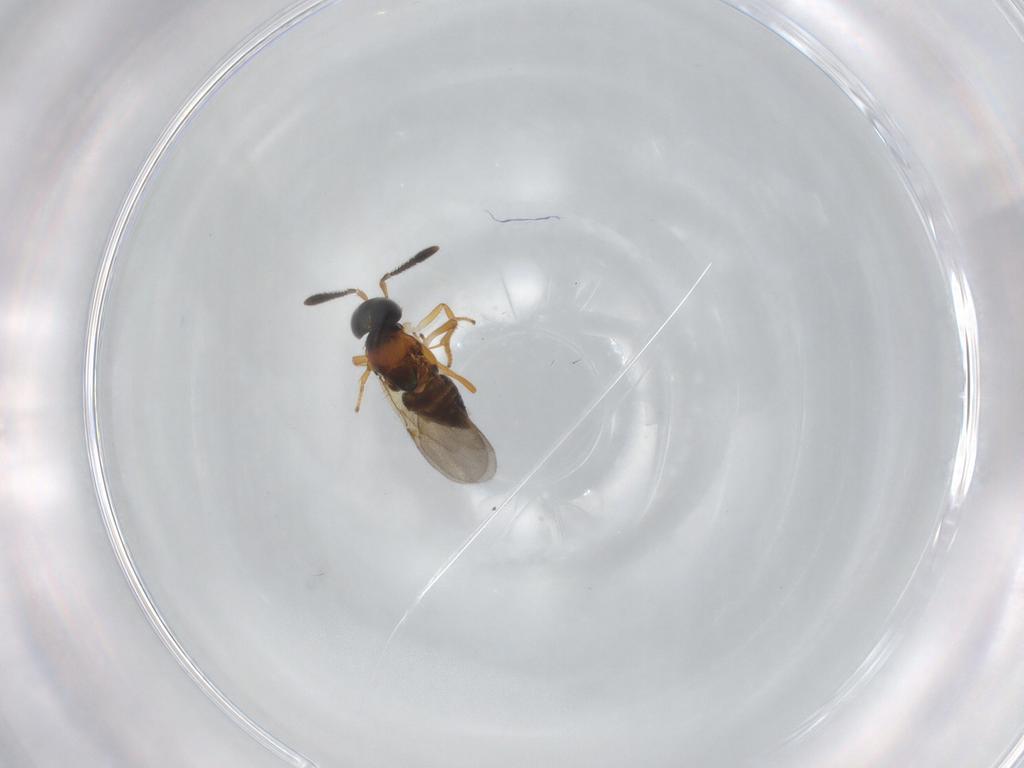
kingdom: Animalia
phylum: Arthropoda
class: Insecta
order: Hymenoptera
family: Encyrtidae
